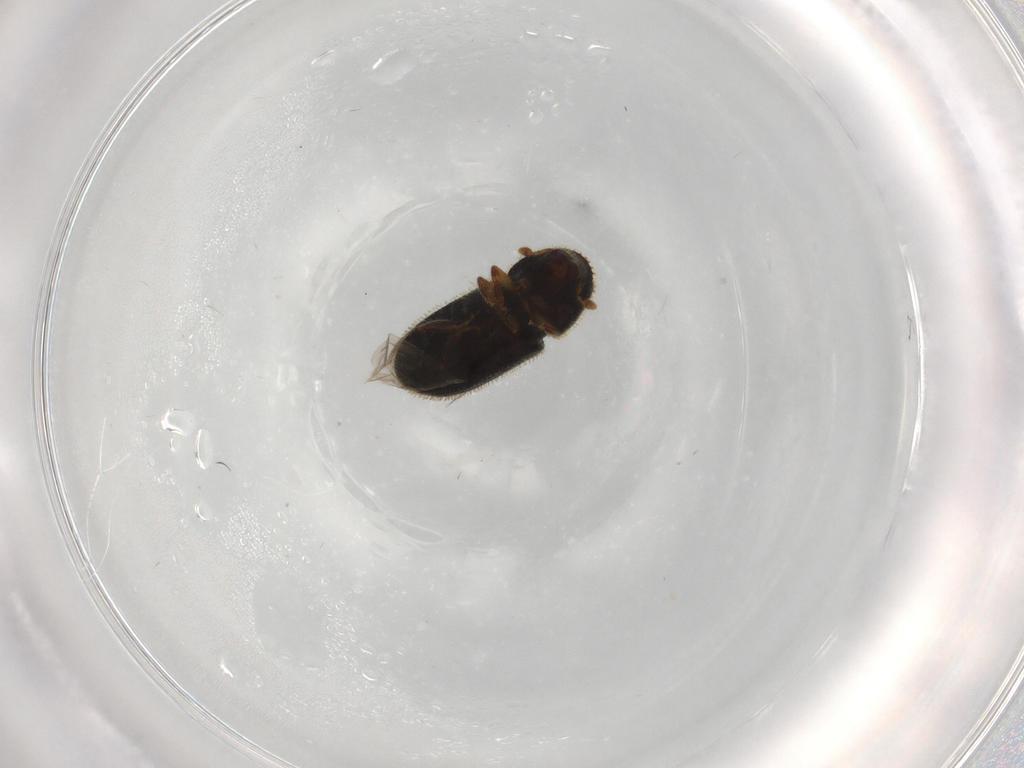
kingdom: Animalia
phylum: Arthropoda
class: Insecta
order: Coleoptera
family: Curculionidae
